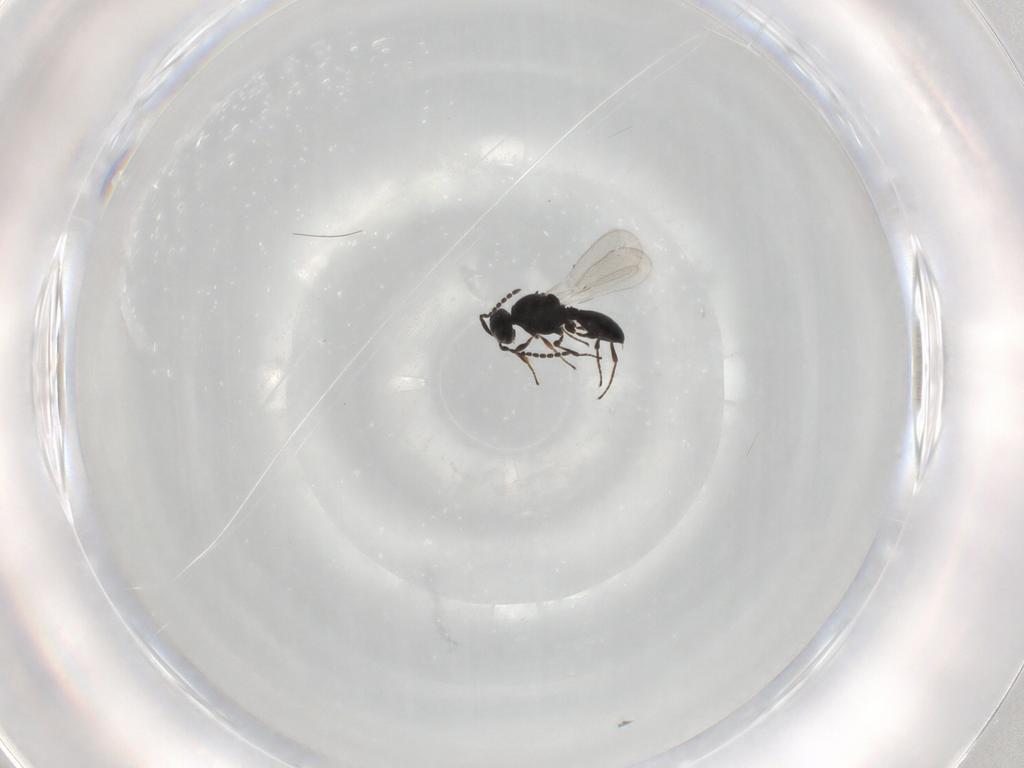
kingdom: Animalia
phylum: Arthropoda
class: Insecta
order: Hymenoptera
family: Platygastridae
